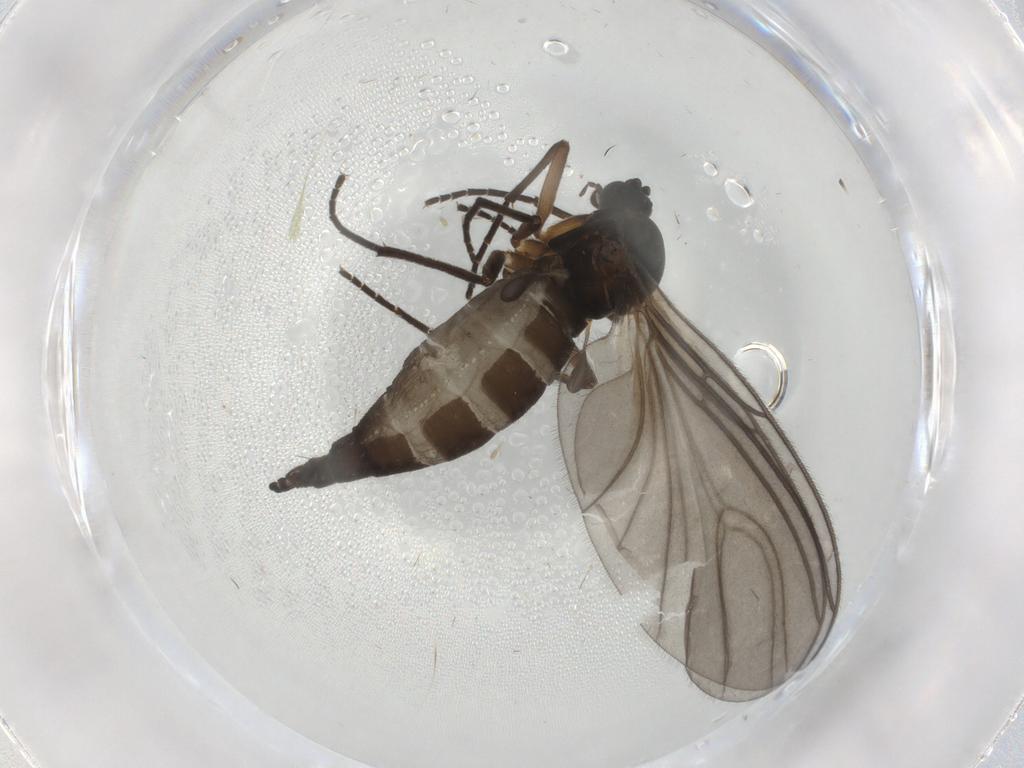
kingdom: Animalia
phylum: Arthropoda
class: Insecta
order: Diptera
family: Sciaridae
